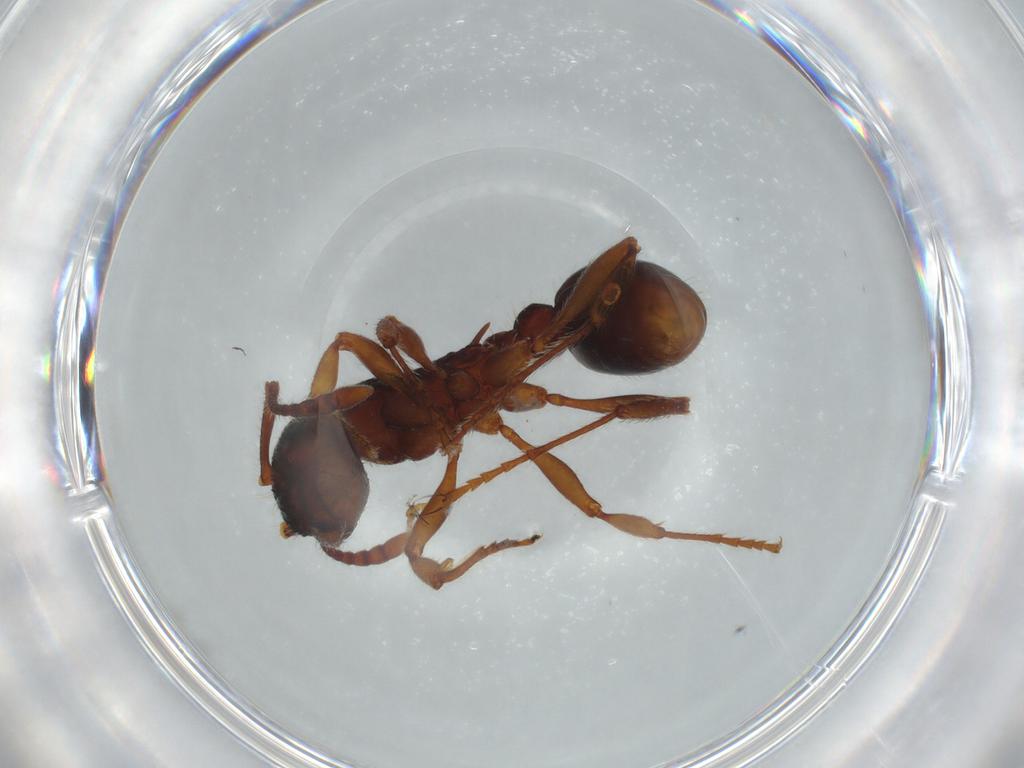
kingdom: Animalia
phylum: Arthropoda
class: Insecta
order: Hymenoptera
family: Formicidae
